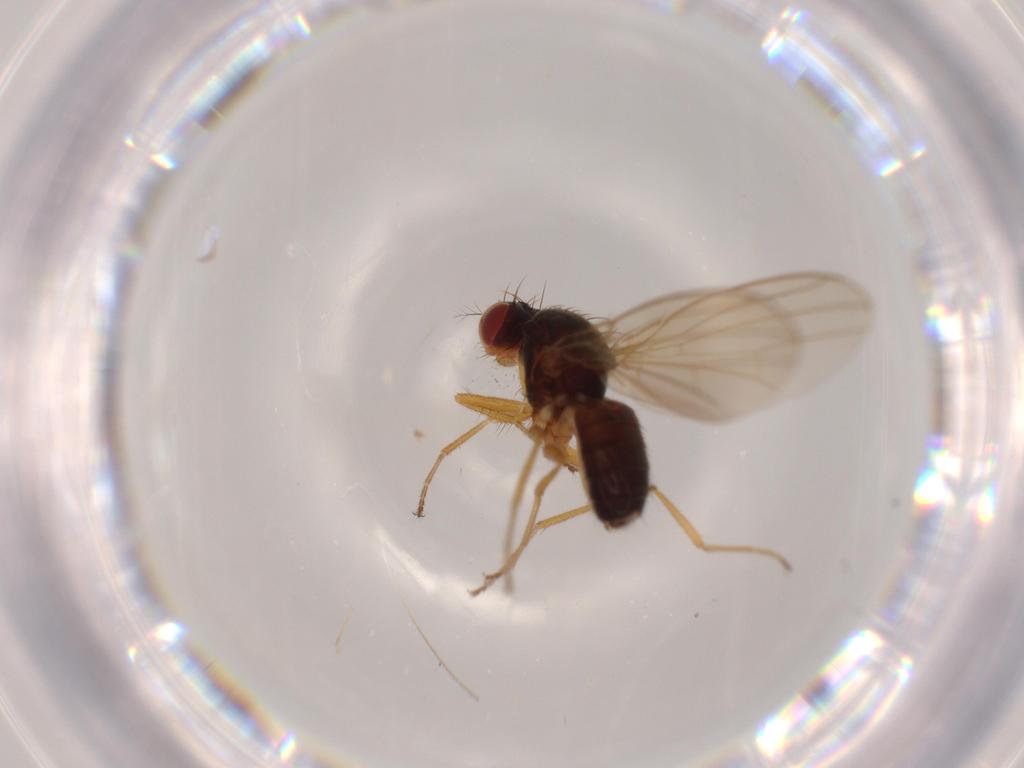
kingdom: Animalia
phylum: Arthropoda
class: Insecta
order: Diptera
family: Drosophilidae
